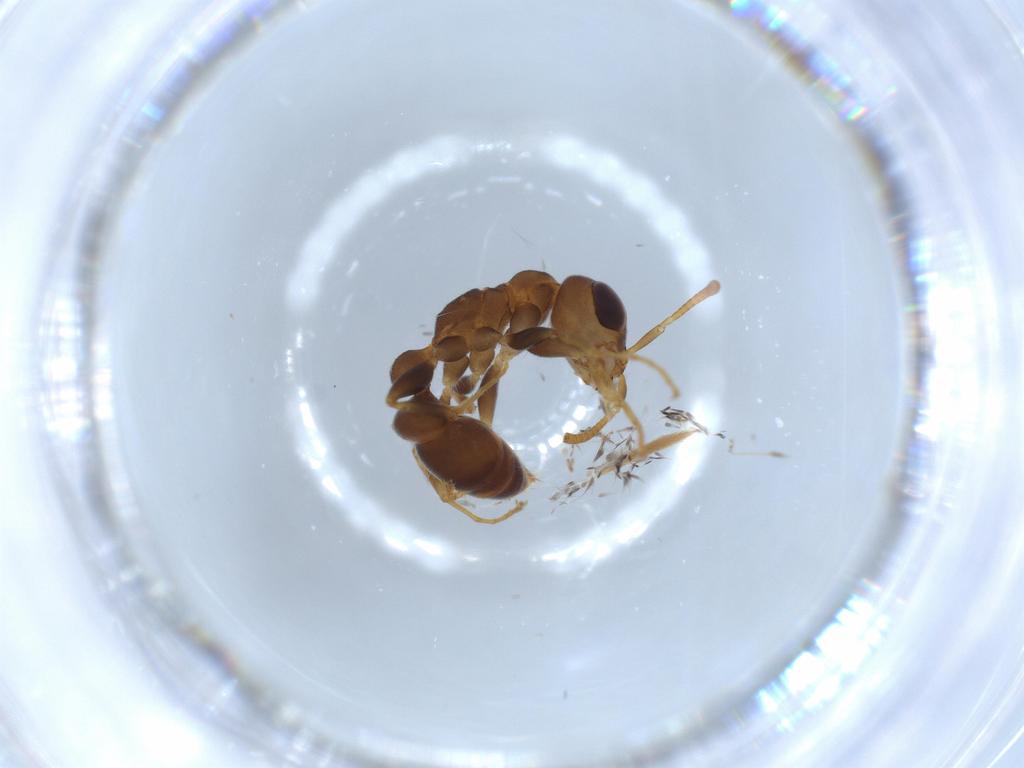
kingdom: Animalia
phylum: Arthropoda
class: Insecta
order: Hymenoptera
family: Formicidae
